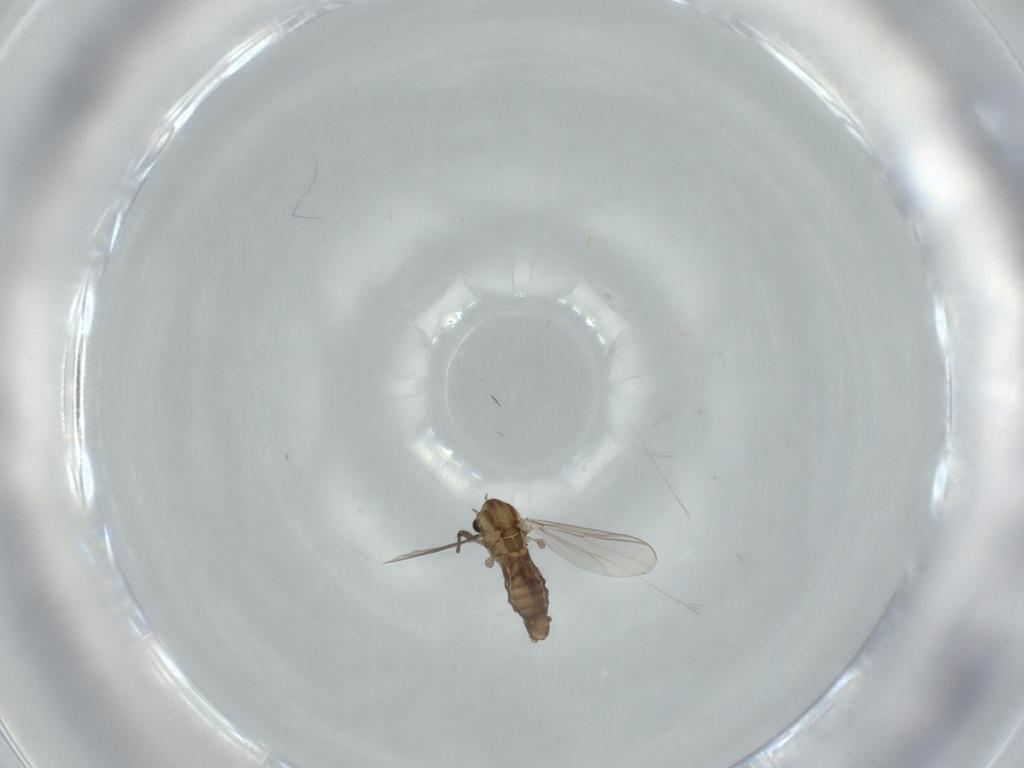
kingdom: Animalia
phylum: Arthropoda
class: Insecta
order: Diptera
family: Chironomidae
